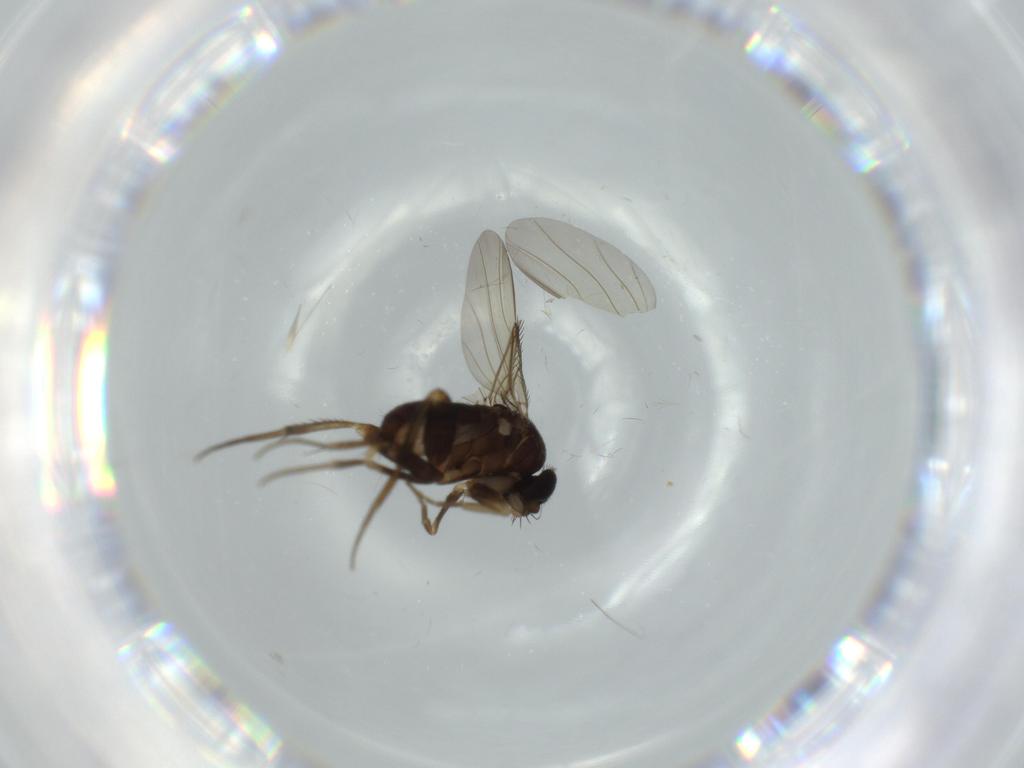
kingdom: Animalia
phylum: Arthropoda
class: Insecta
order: Diptera
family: Phoridae
